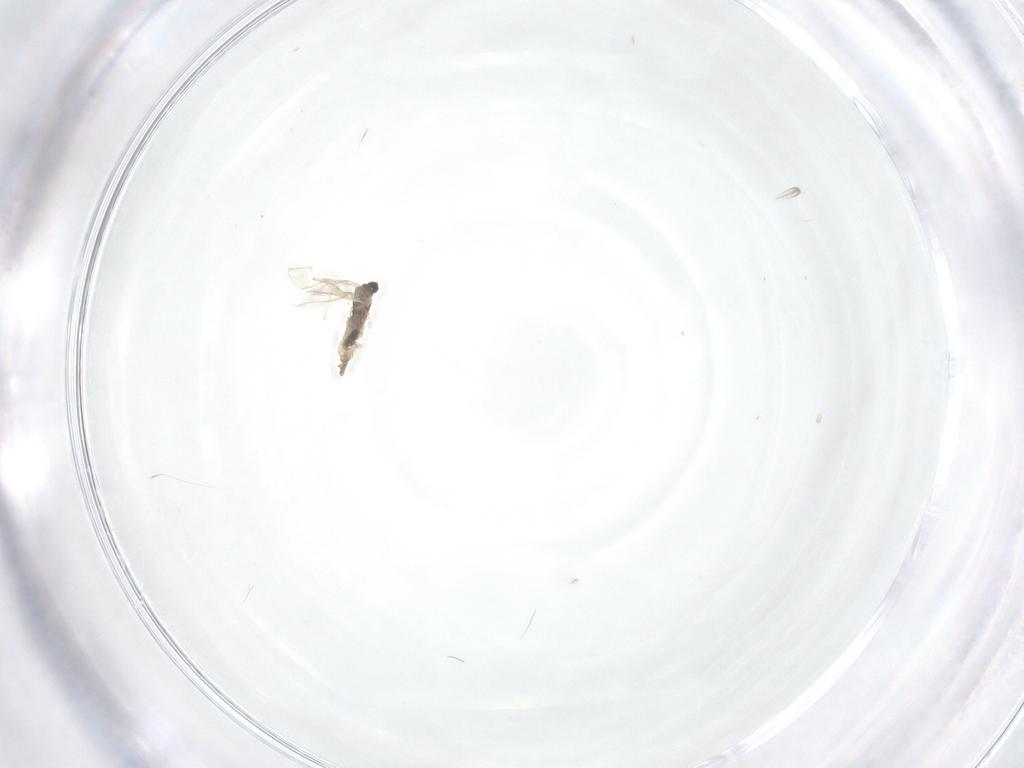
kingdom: Animalia
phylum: Arthropoda
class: Insecta
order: Diptera
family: Cecidomyiidae
